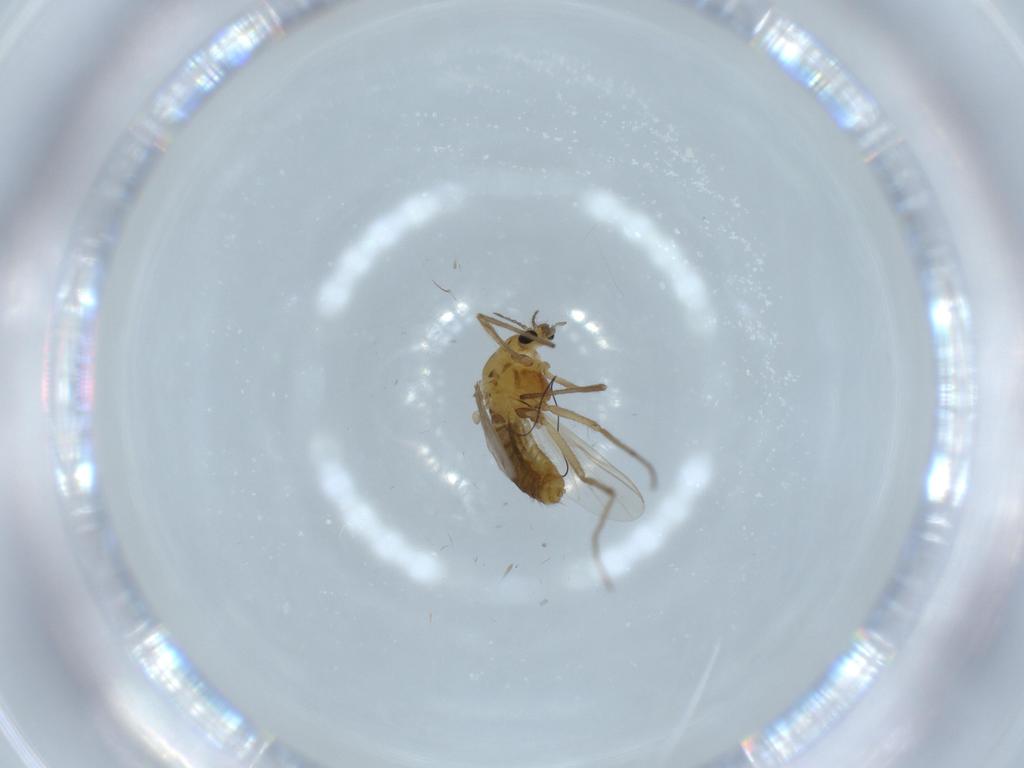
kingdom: Animalia
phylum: Arthropoda
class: Insecta
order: Diptera
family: Chironomidae
